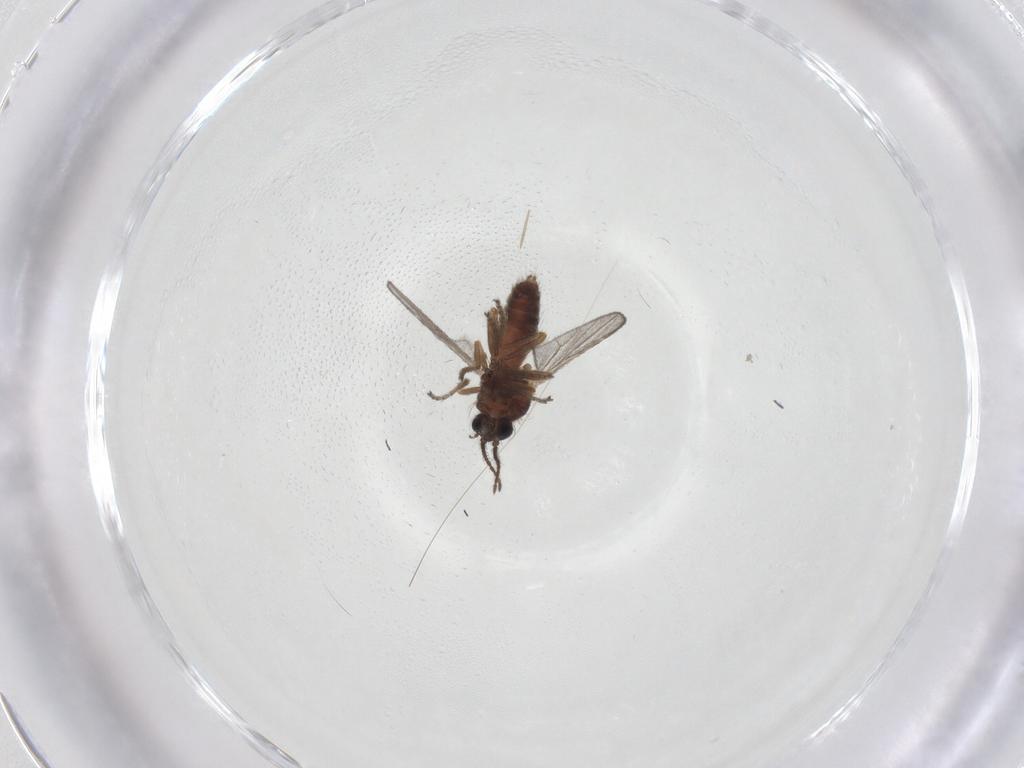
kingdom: Animalia
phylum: Arthropoda
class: Insecta
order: Diptera
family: Ceratopogonidae
